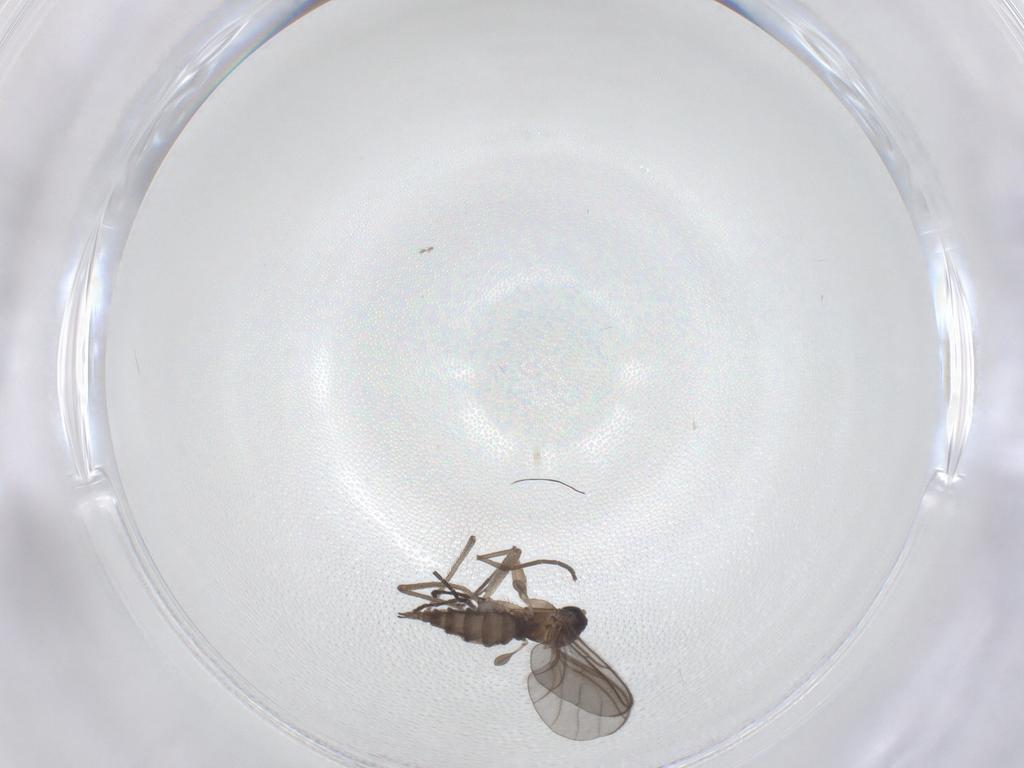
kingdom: Animalia
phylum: Arthropoda
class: Insecta
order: Diptera
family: Sciaridae
